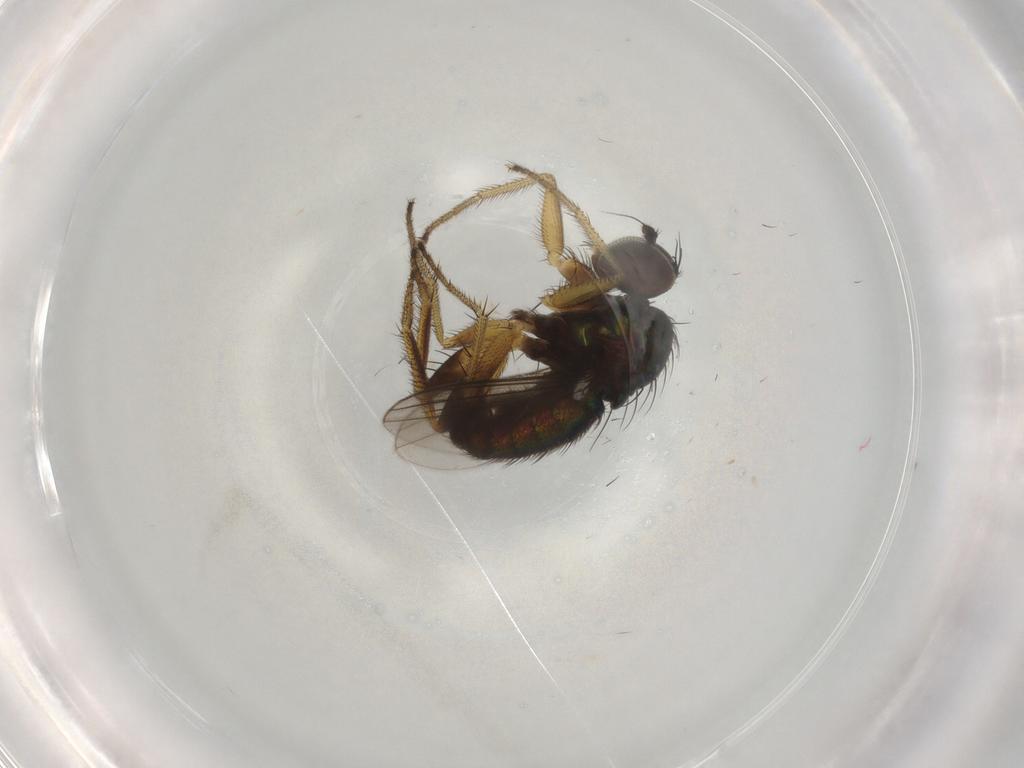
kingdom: Animalia
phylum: Arthropoda
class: Insecta
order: Diptera
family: Dolichopodidae
